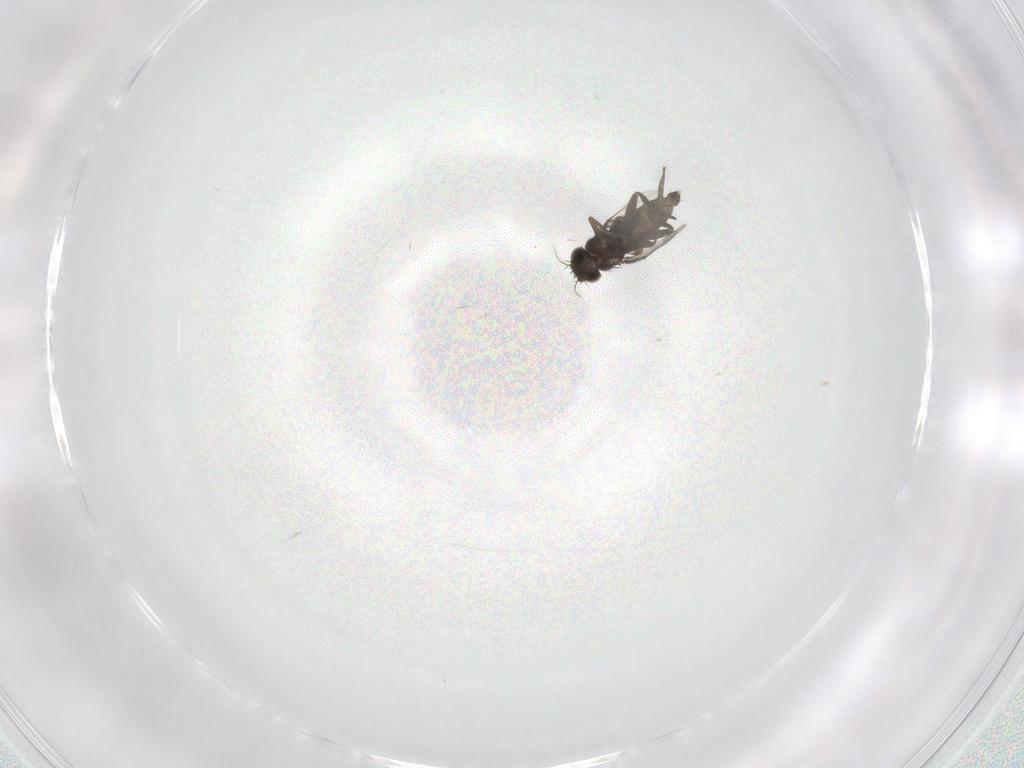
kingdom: Animalia
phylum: Arthropoda
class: Insecta
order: Diptera
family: Phoridae
